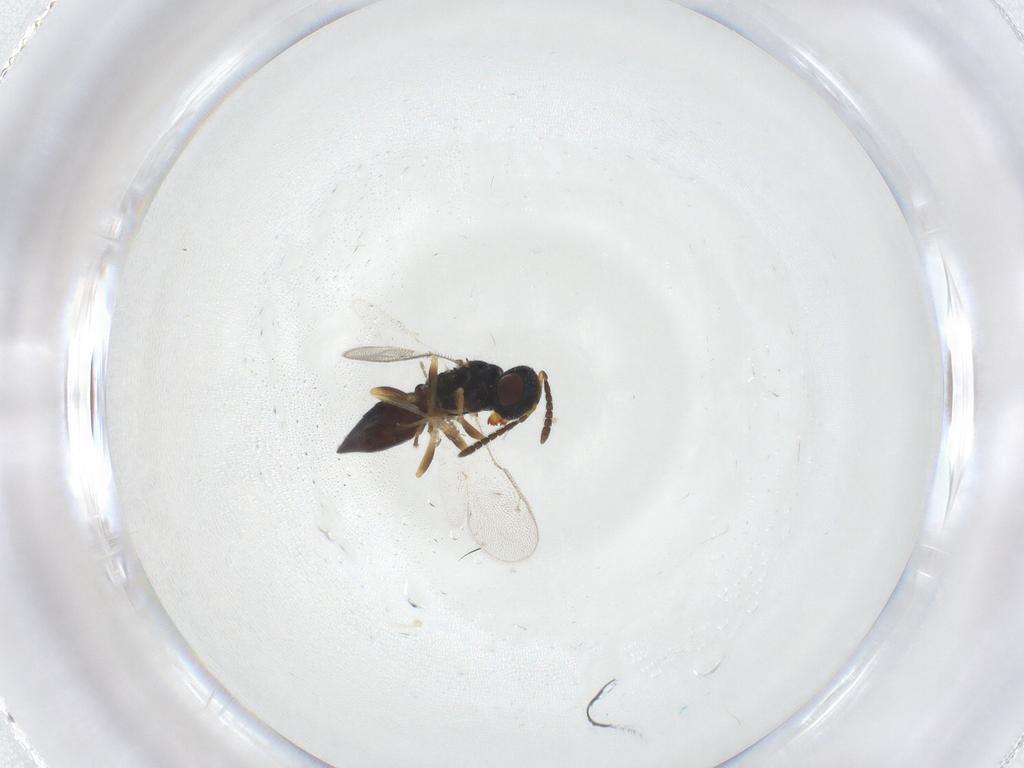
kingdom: Animalia
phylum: Arthropoda
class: Insecta
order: Hymenoptera
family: Pteromalidae
